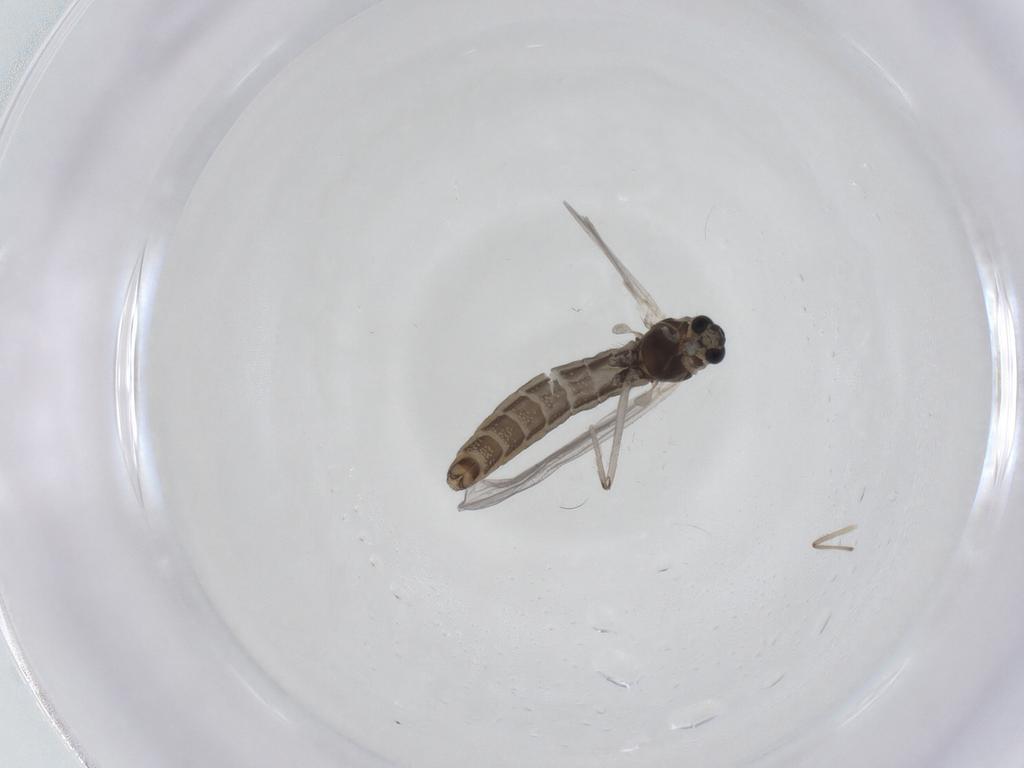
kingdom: Animalia
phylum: Arthropoda
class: Insecta
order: Diptera
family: Chironomidae
